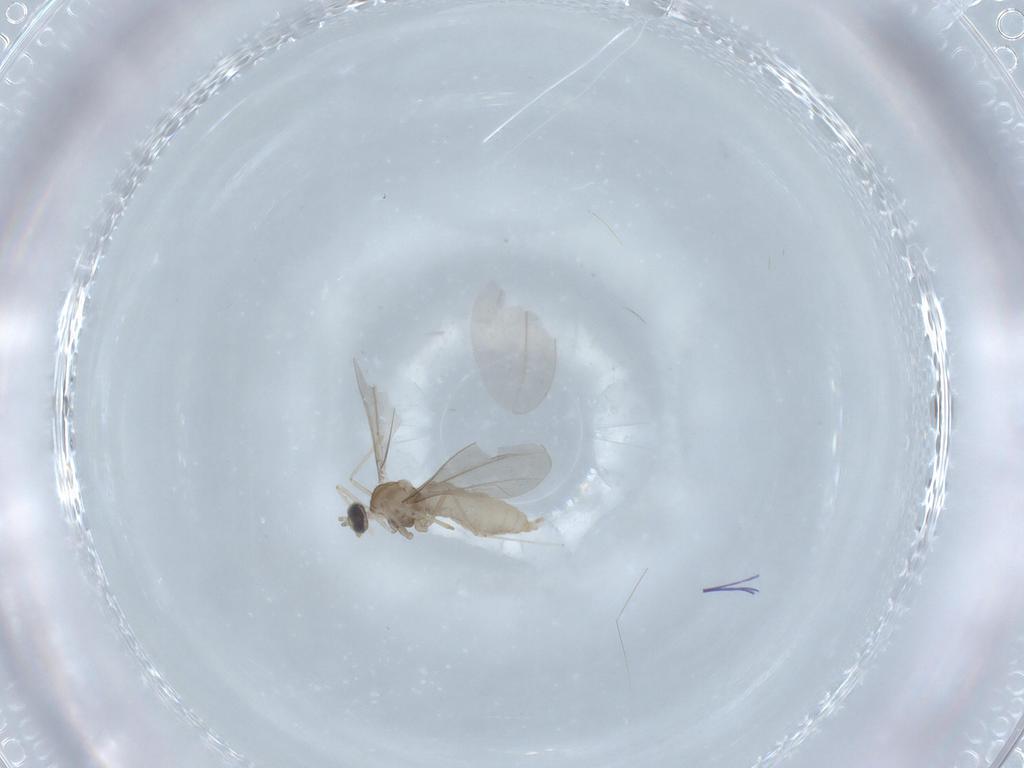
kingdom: Animalia
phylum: Arthropoda
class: Insecta
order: Diptera
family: Cecidomyiidae
